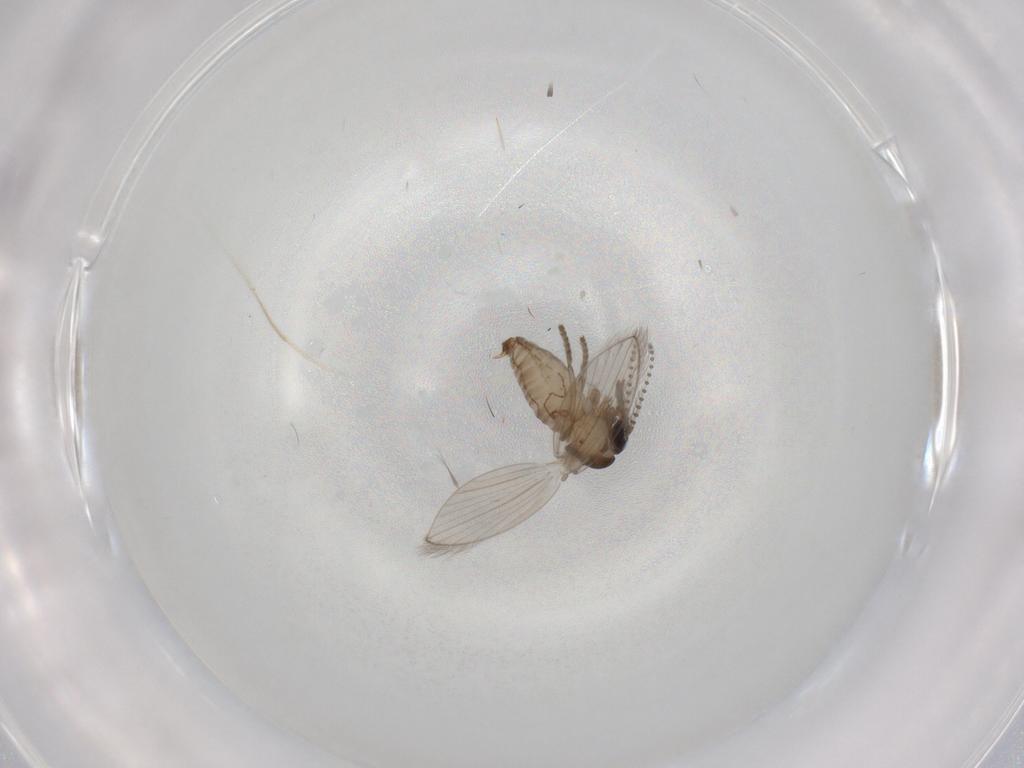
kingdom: Animalia
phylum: Arthropoda
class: Insecta
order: Diptera
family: Psychodidae
